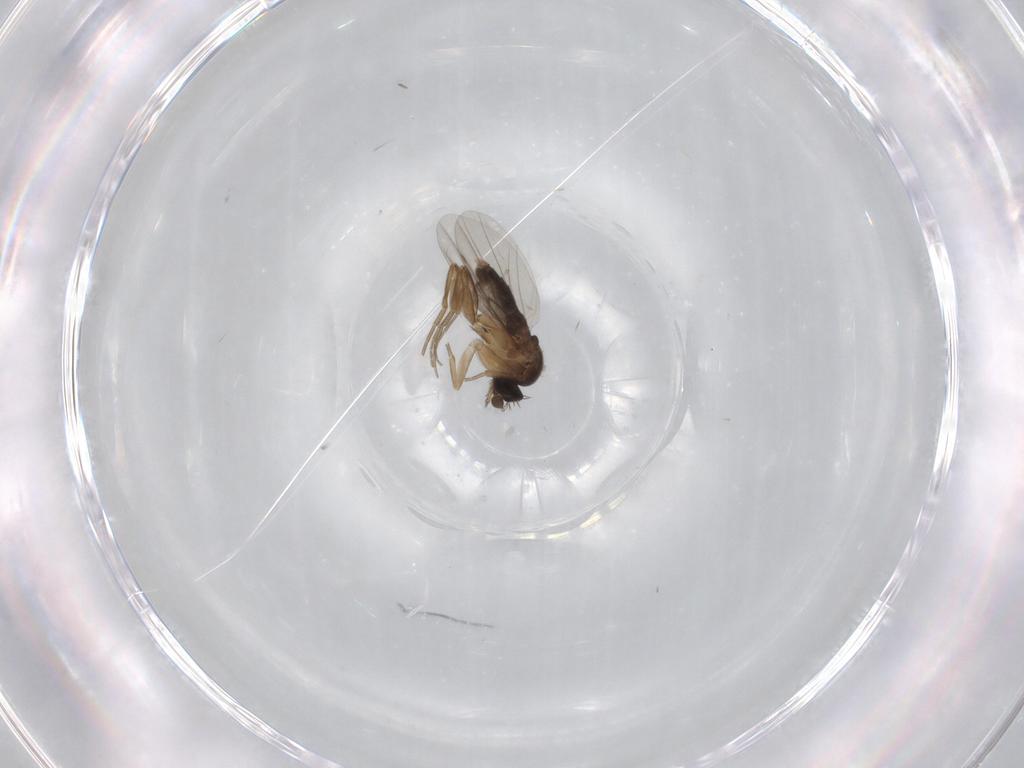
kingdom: Animalia
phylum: Arthropoda
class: Insecta
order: Diptera
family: Phoridae
